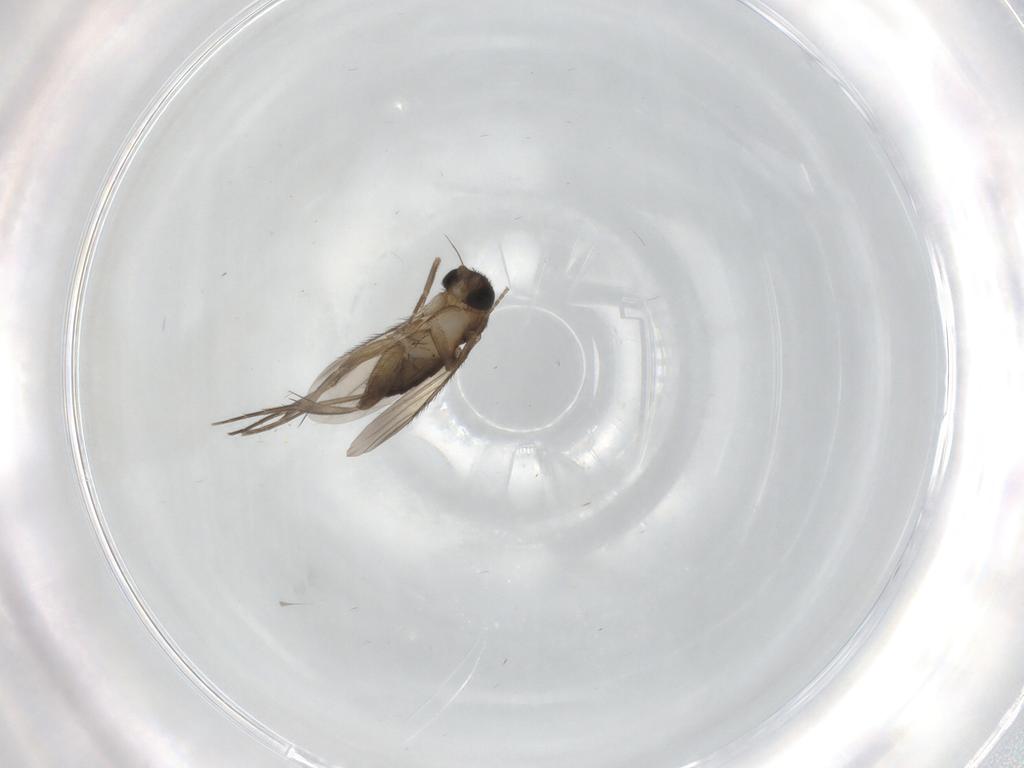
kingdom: Animalia
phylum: Arthropoda
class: Insecta
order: Diptera
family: Phoridae
